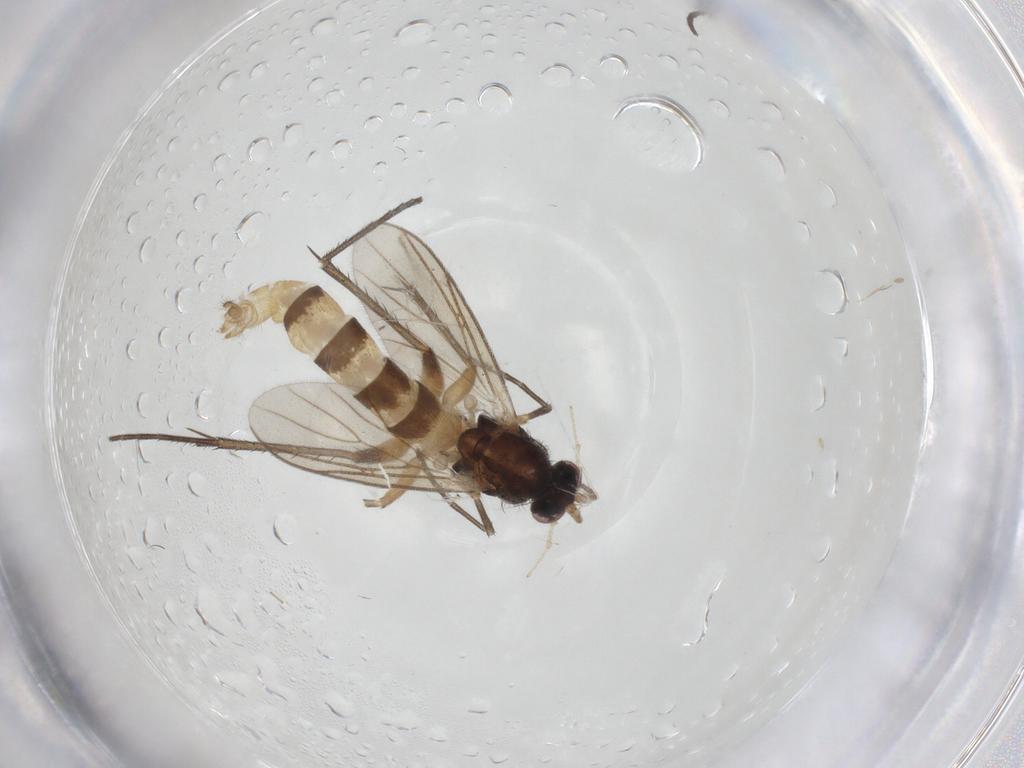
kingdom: Animalia
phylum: Arthropoda
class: Insecta
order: Diptera
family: Mycetophilidae
